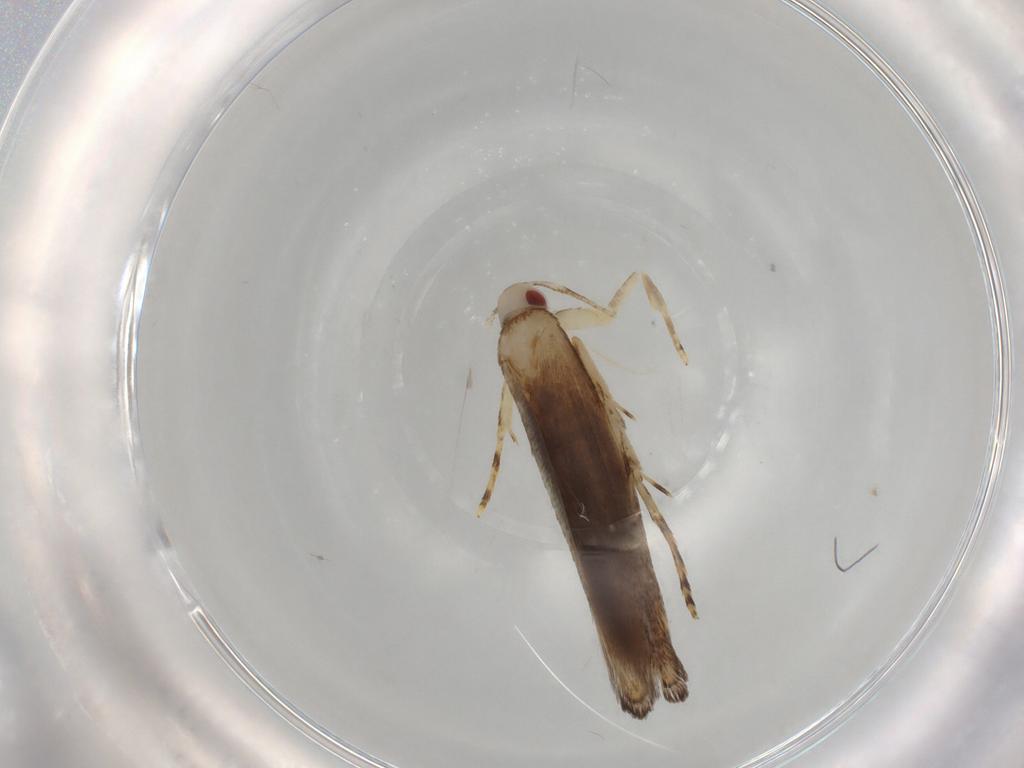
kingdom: Animalia
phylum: Arthropoda
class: Insecta
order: Lepidoptera
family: Erebidae
